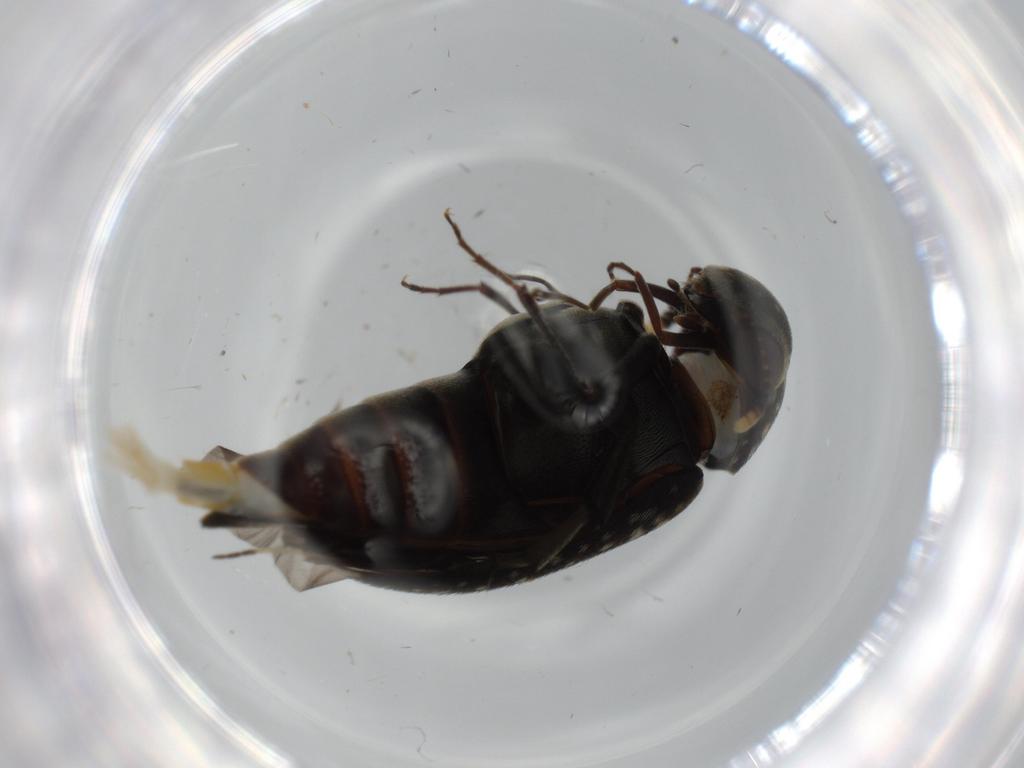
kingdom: Animalia
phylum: Arthropoda
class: Insecta
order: Coleoptera
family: Mordellidae
